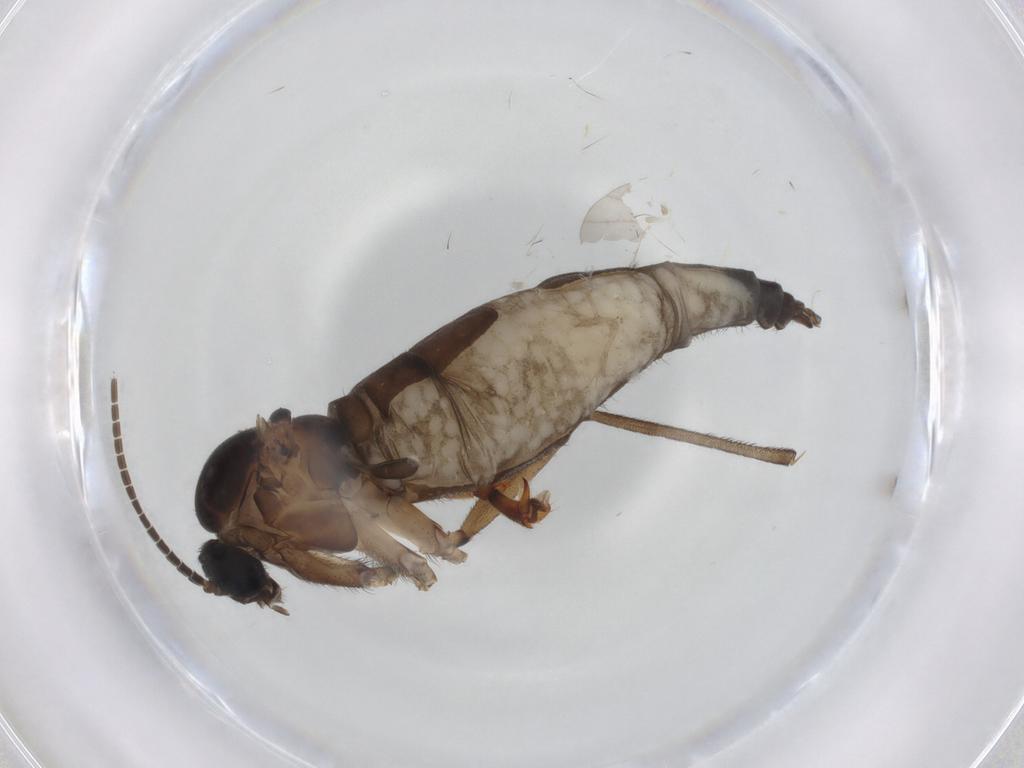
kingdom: Animalia
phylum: Arthropoda
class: Insecta
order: Diptera
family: Sciaridae
